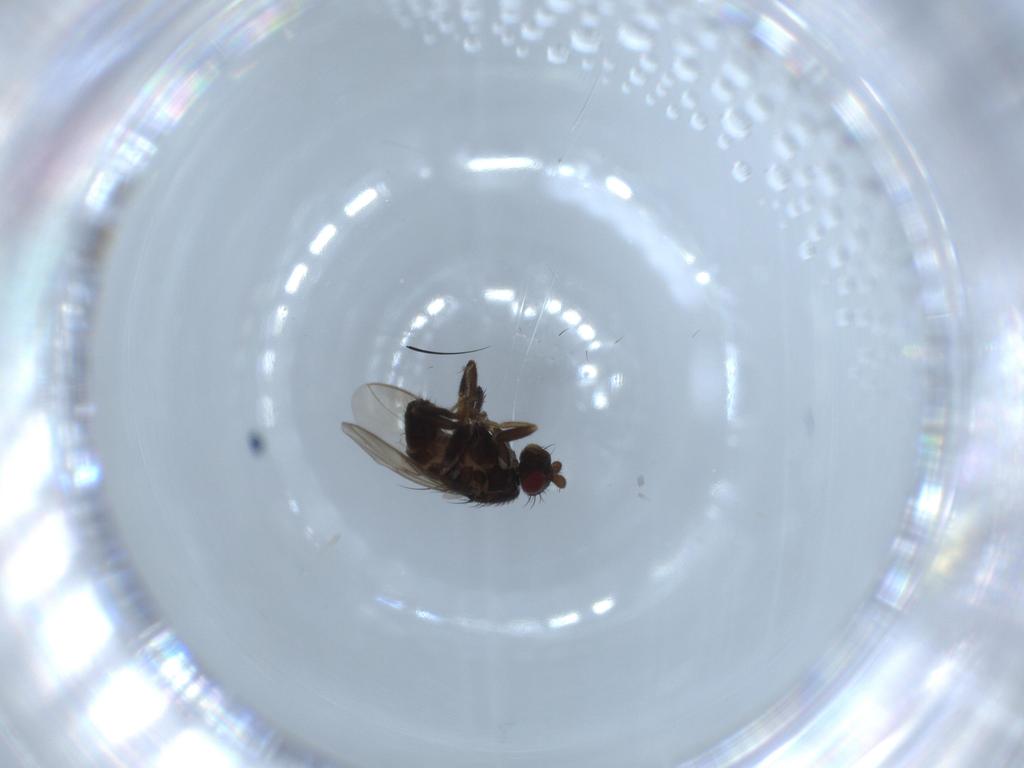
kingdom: Animalia
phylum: Arthropoda
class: Insecta
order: Diptera
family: Sphaeroceridae
